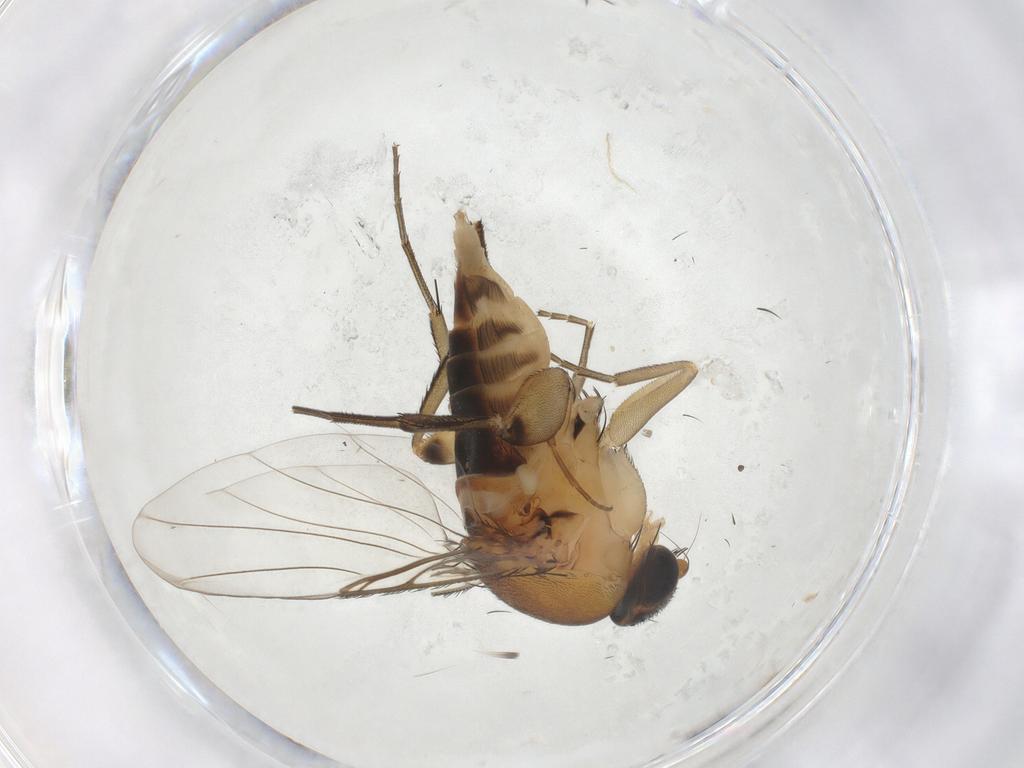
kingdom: Animalia
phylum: Arthropoda
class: Insecta
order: Diptera
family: Phoridae
